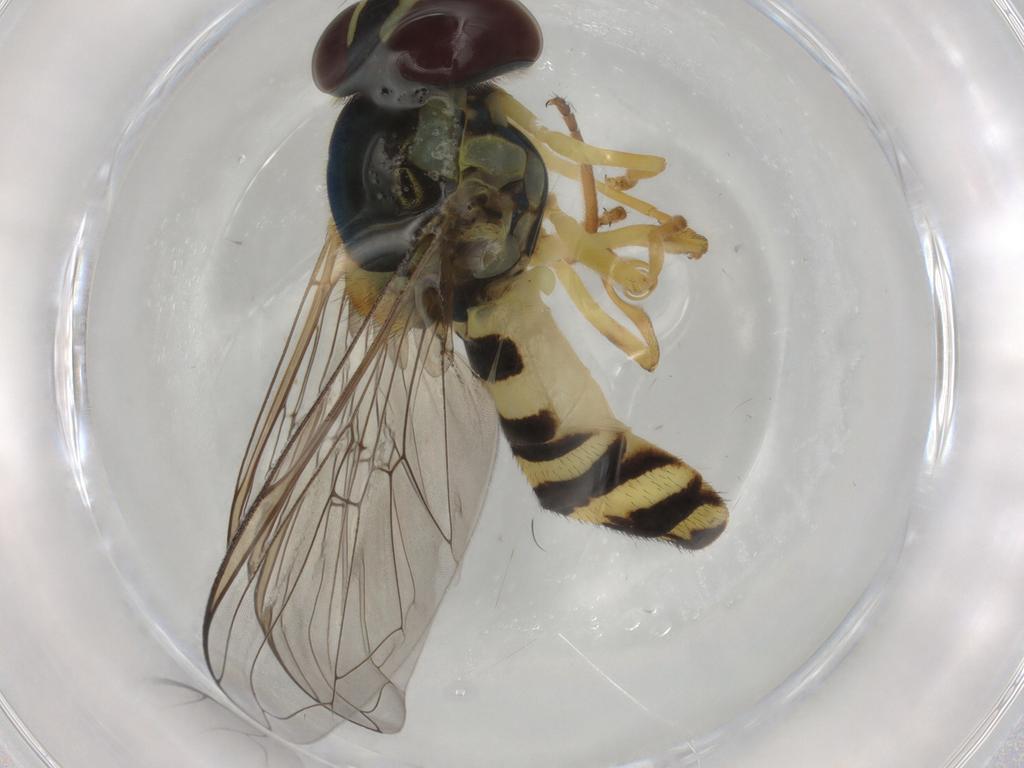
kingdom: Animalia
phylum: Arthropoda
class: Insecta
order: Diptera
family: Syrphidae
